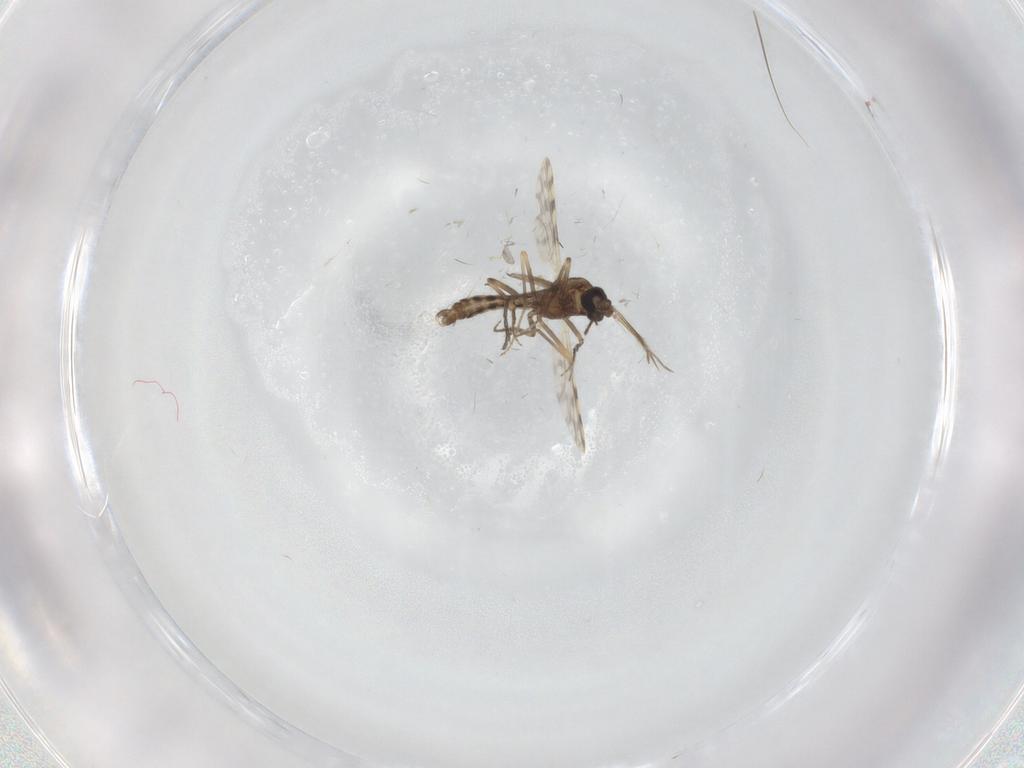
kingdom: Animalia
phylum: Arthropoda
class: Insecta
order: Diptera
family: Ceratopogonidae
